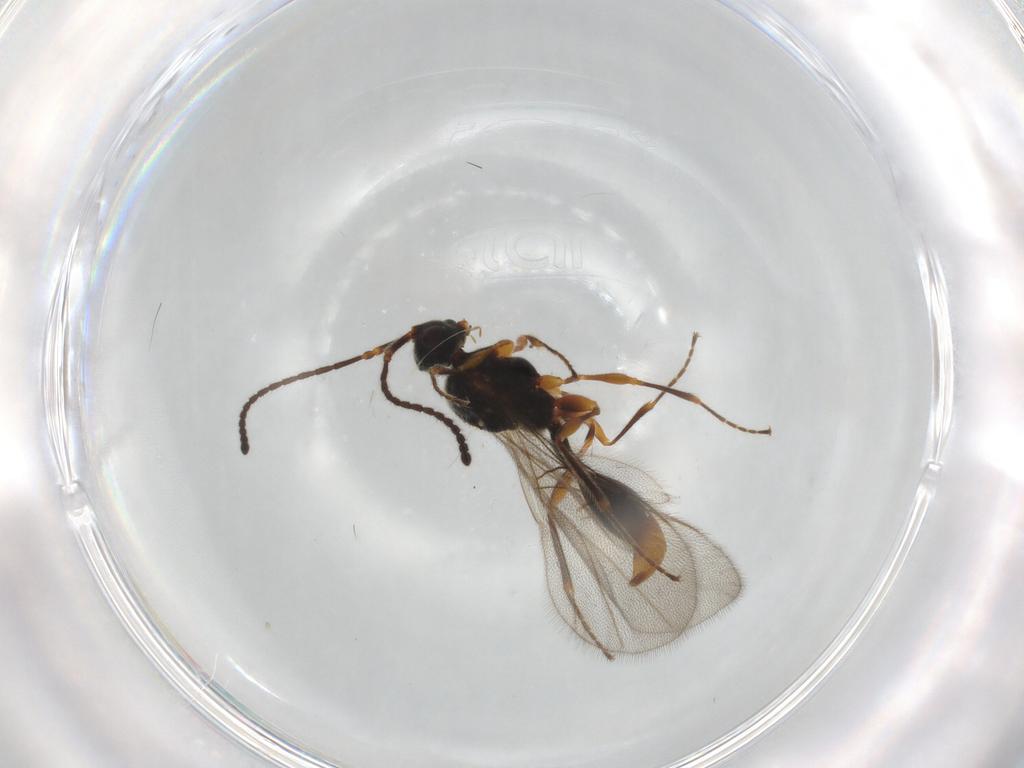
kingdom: Animalia
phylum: Arthropoda
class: Insecta
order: Hymenoptera
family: Diapriidae
